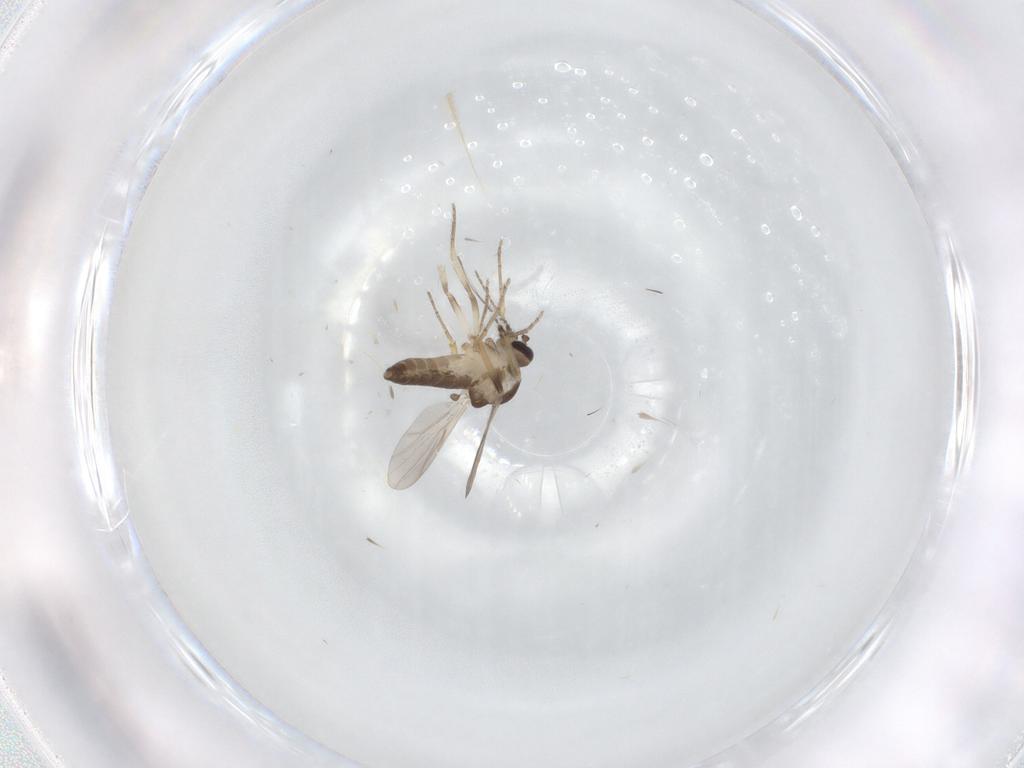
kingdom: Animalia
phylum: Arthropoda
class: Insecta
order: Diptera
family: Ceratopogonidae
